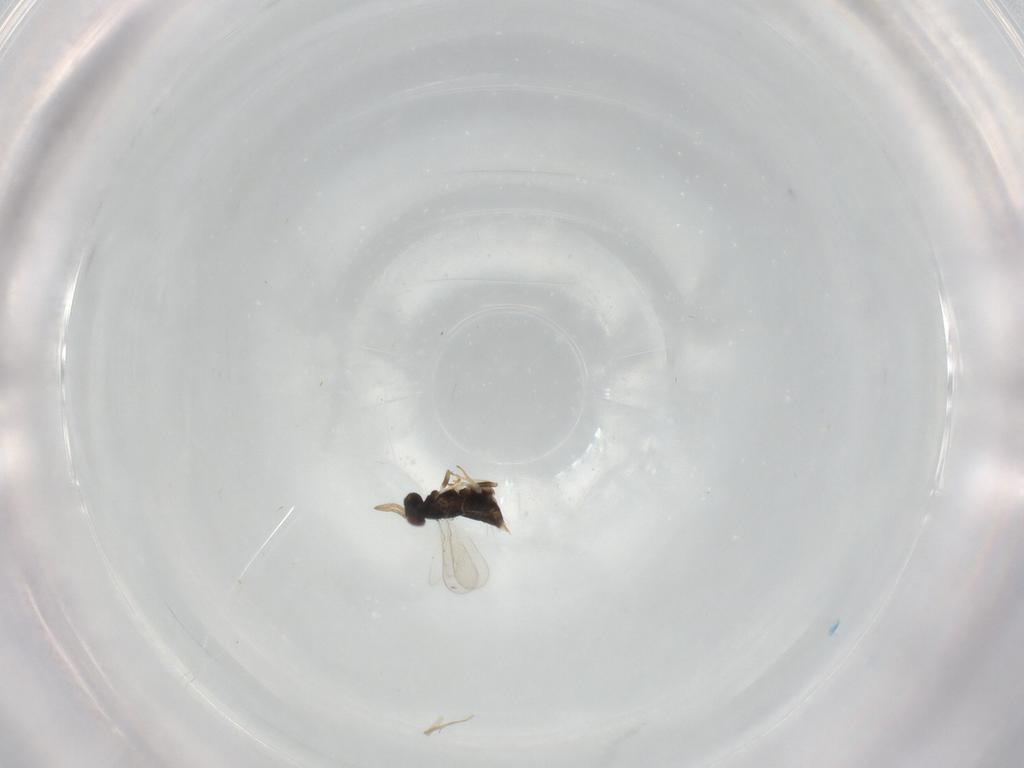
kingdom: Animalia
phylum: Arthropoda
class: Insecta
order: Hymenoptera
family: Aphelinidae
